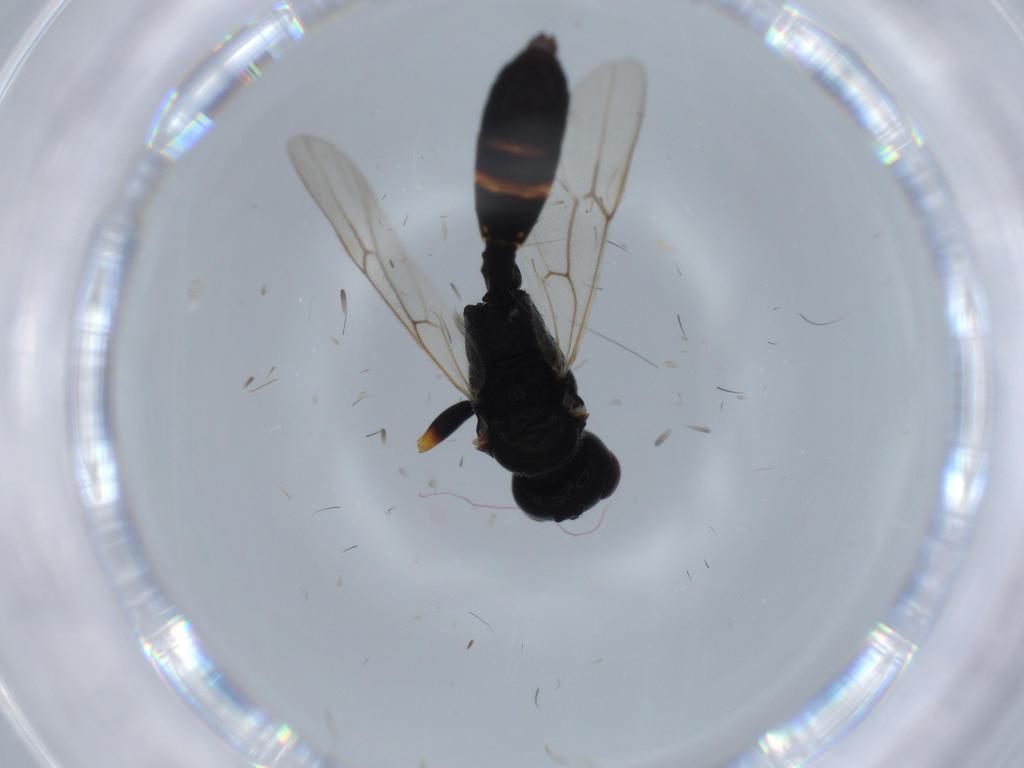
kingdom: Animalia
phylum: Arthropoda
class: Insecta
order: Hymenoptera
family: Ichneumonidae
